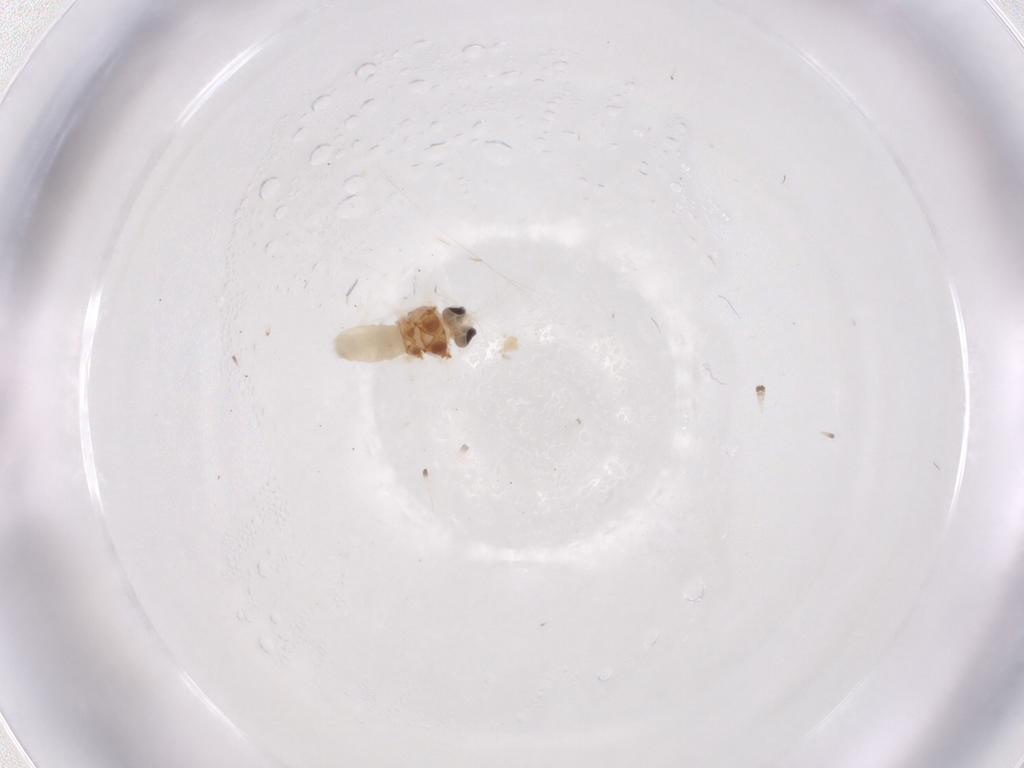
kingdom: Animalia
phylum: Arthropoda
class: Insecta
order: Neuroptera
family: Coniopterygidae
